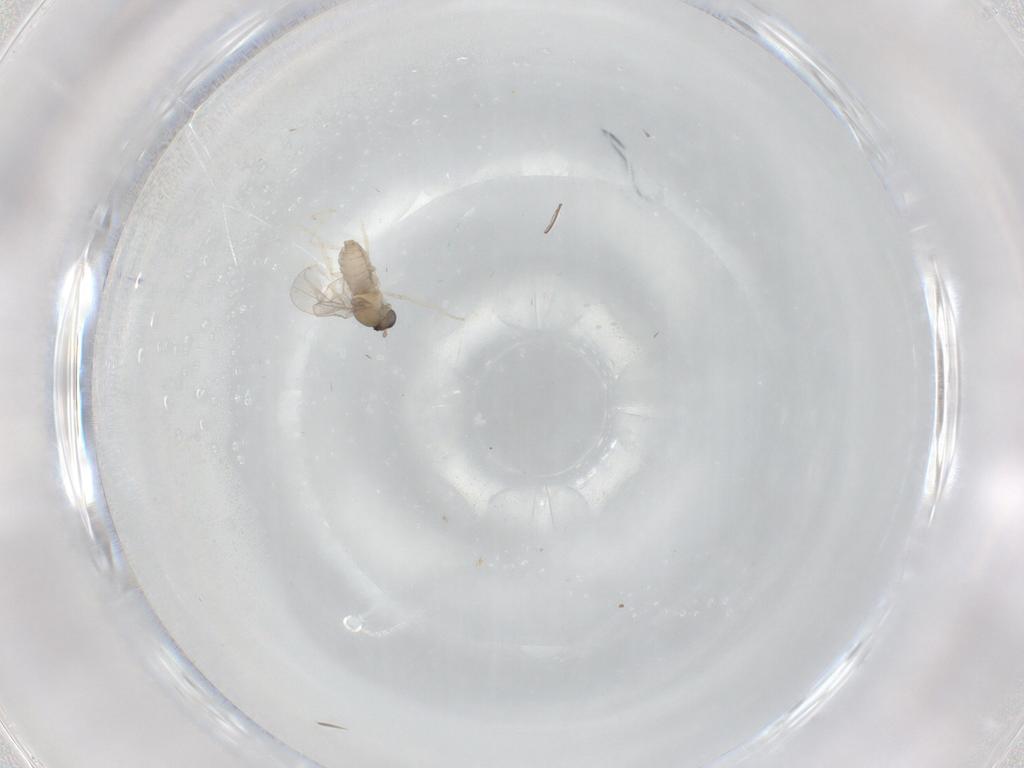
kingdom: Animalia
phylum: Arthropoda
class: Insecta
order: Diptera
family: Cecidomyiidae
